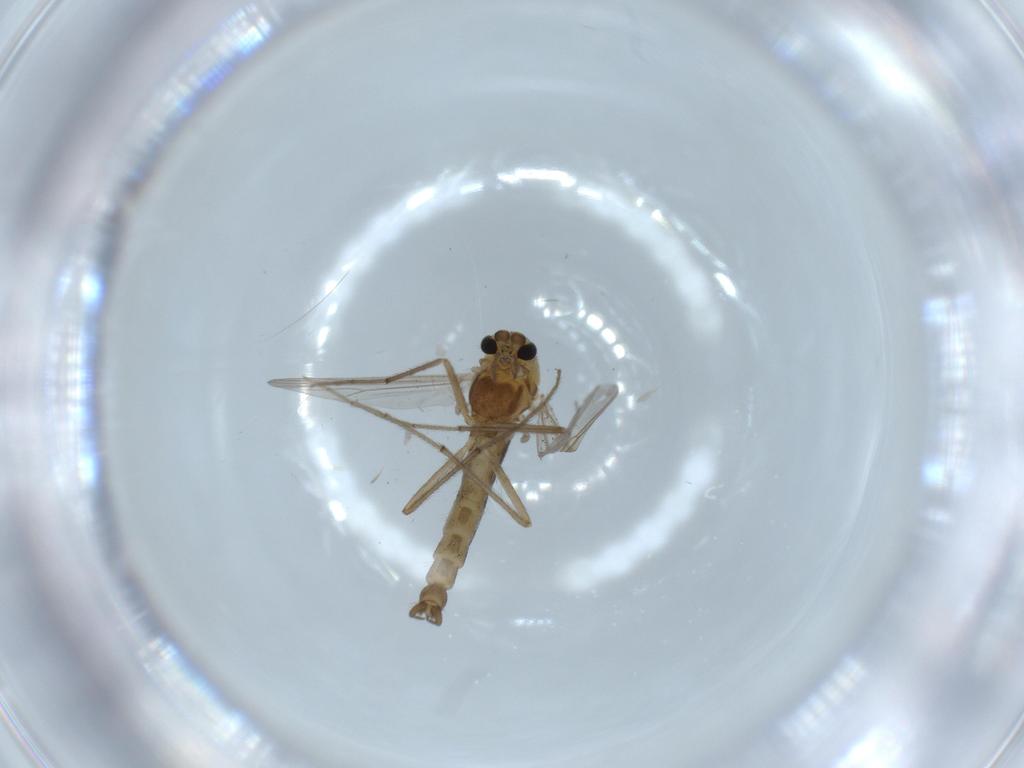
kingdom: Animalia
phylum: Arthropoda
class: Insecta
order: Diptera
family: Chironomidae
